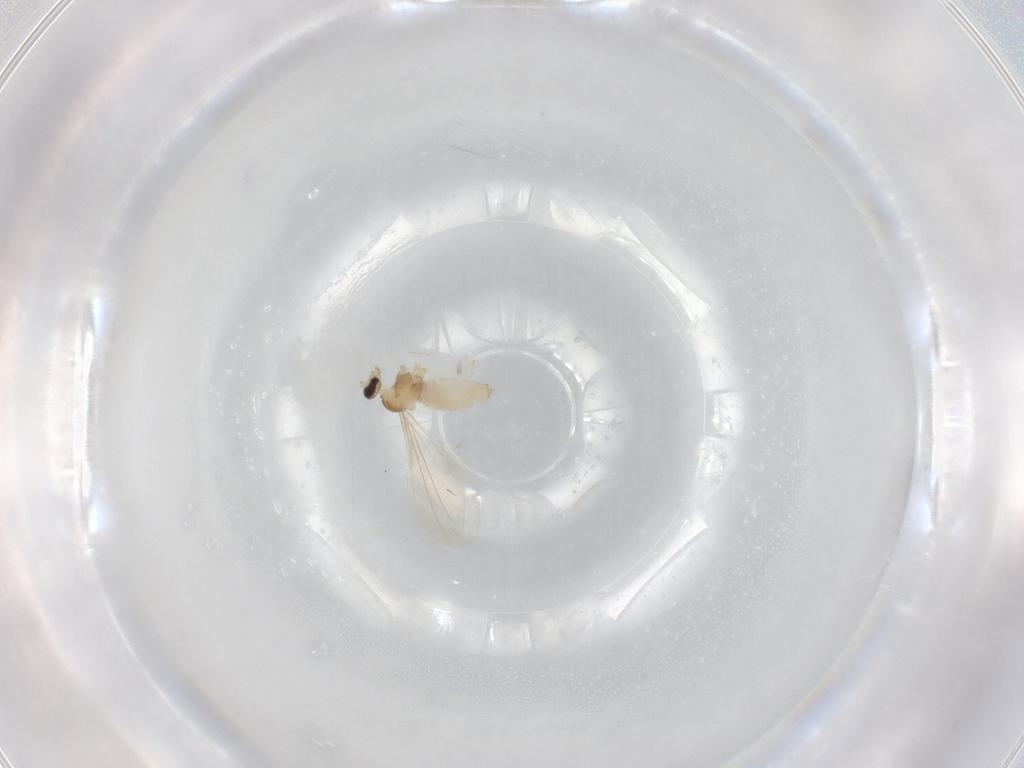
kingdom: Animalia
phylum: Arthropoda
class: Insecta
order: Diptera
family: Cecidomyiidae
